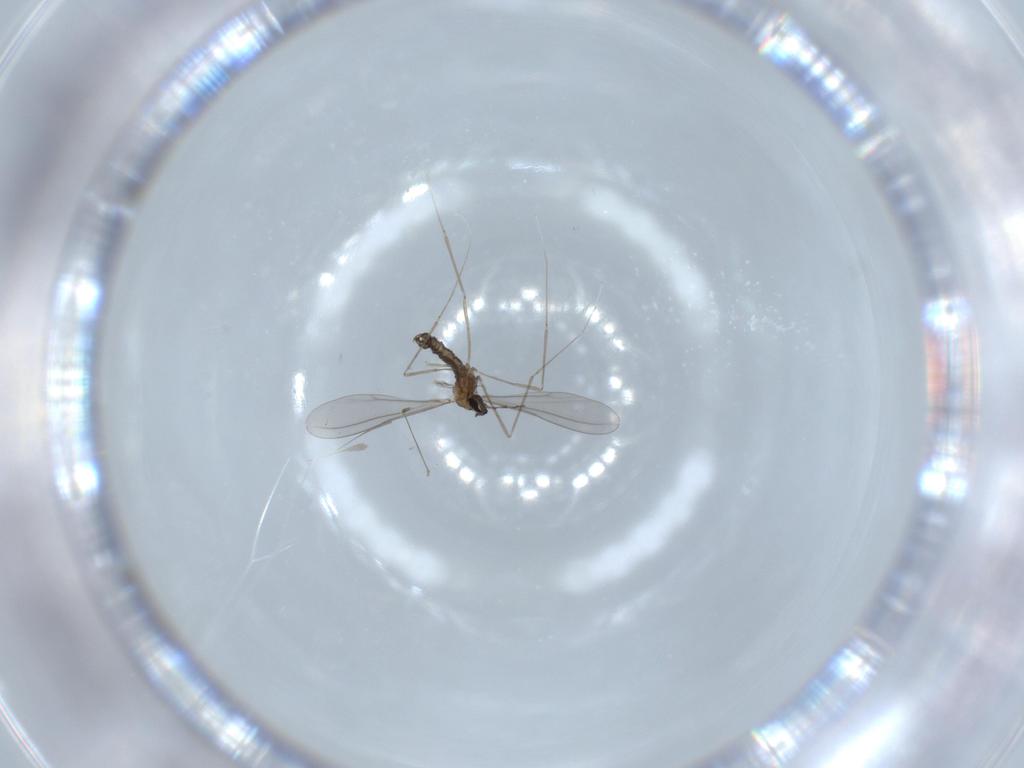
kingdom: Animalia
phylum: Arthropoda
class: Insecta
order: Diptera
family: Cecidomyiidae
